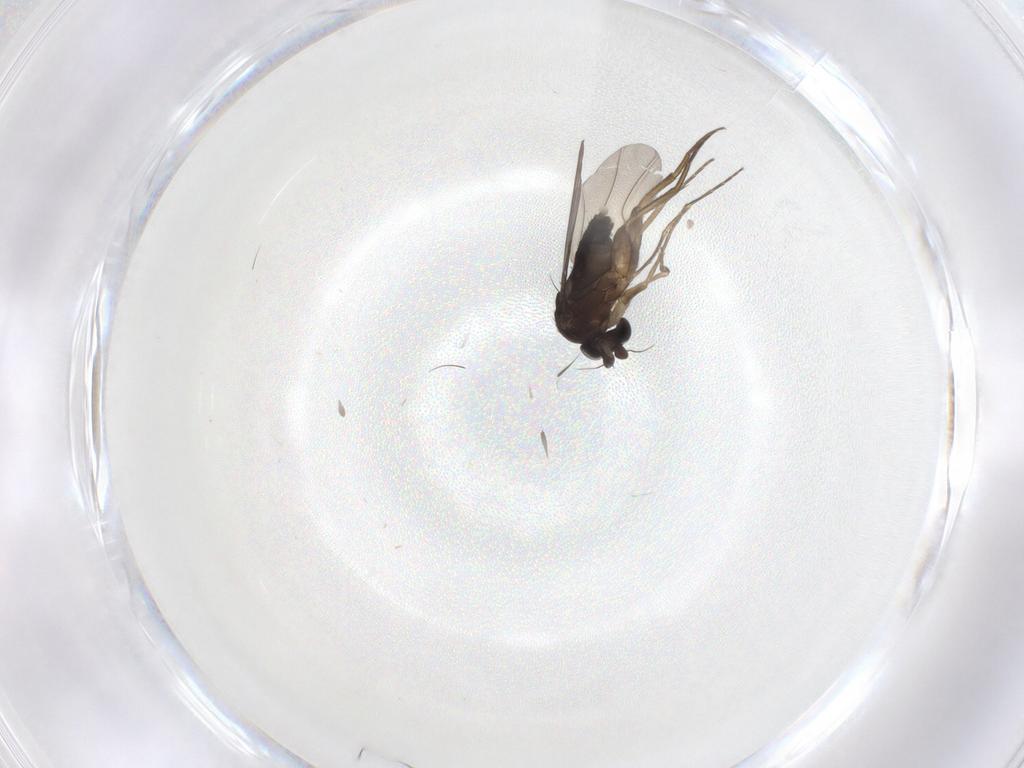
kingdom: Animalia
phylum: Arthropoda
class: Insecta
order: Diptera
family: Phoridae
